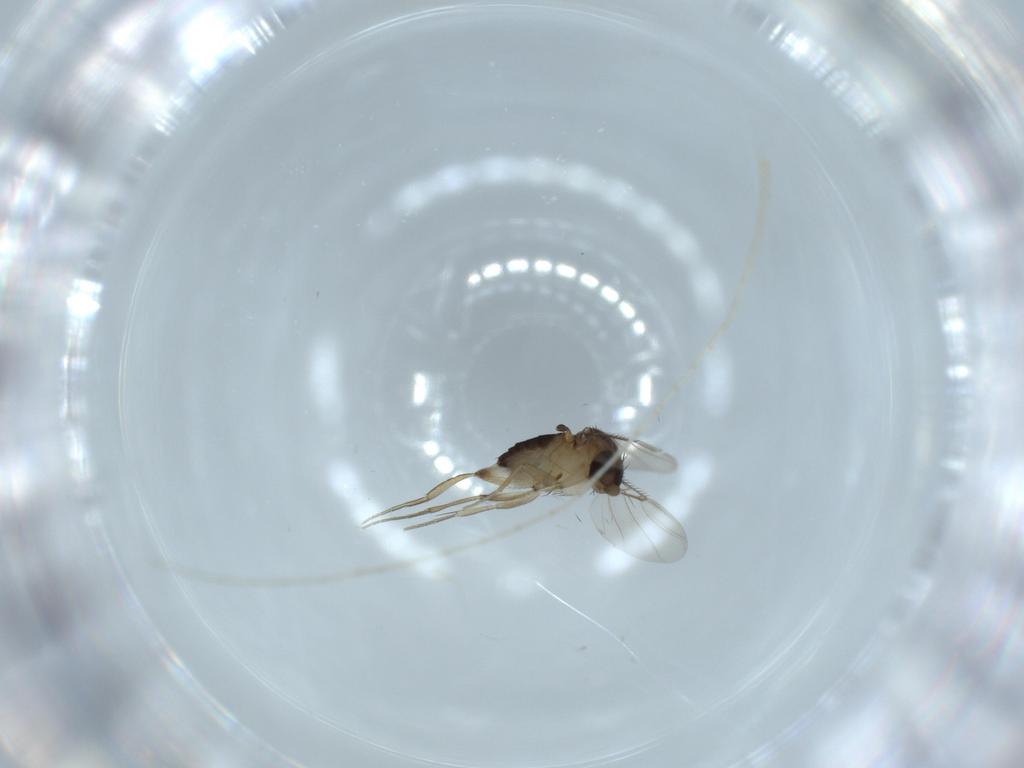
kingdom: Animalia
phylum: Arthropoda
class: Insecta
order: Diptera
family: Phoridae
